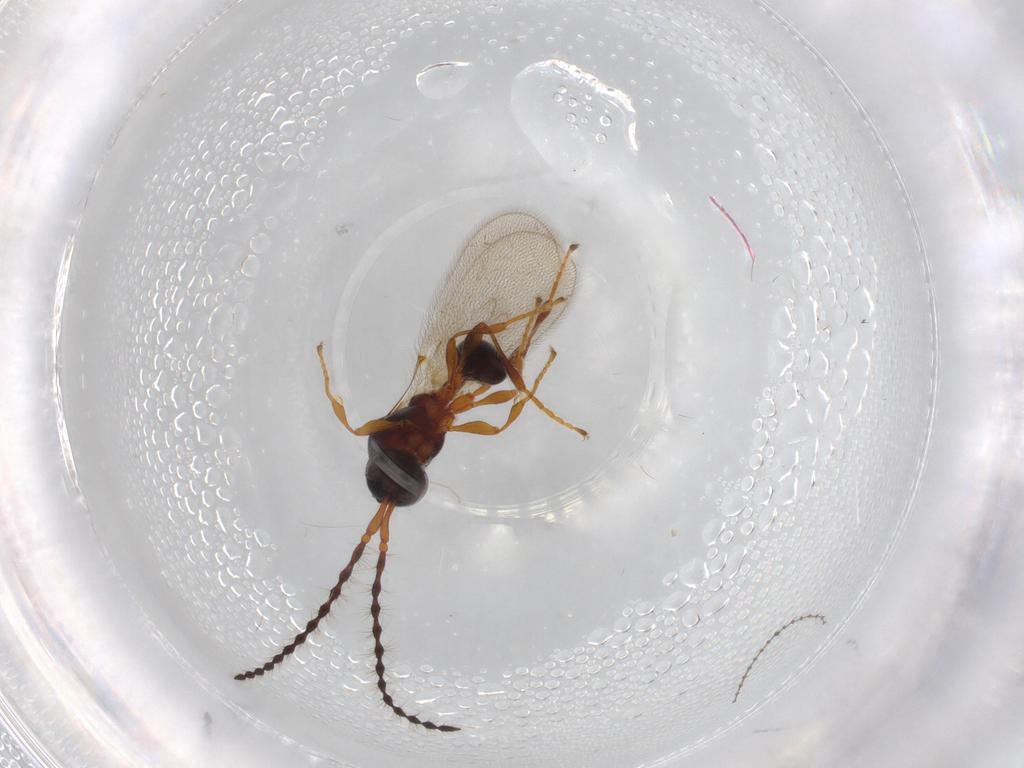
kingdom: Animalia
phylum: Arthropoda
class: Insecta
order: Hymenoptera
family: Diapriidae
